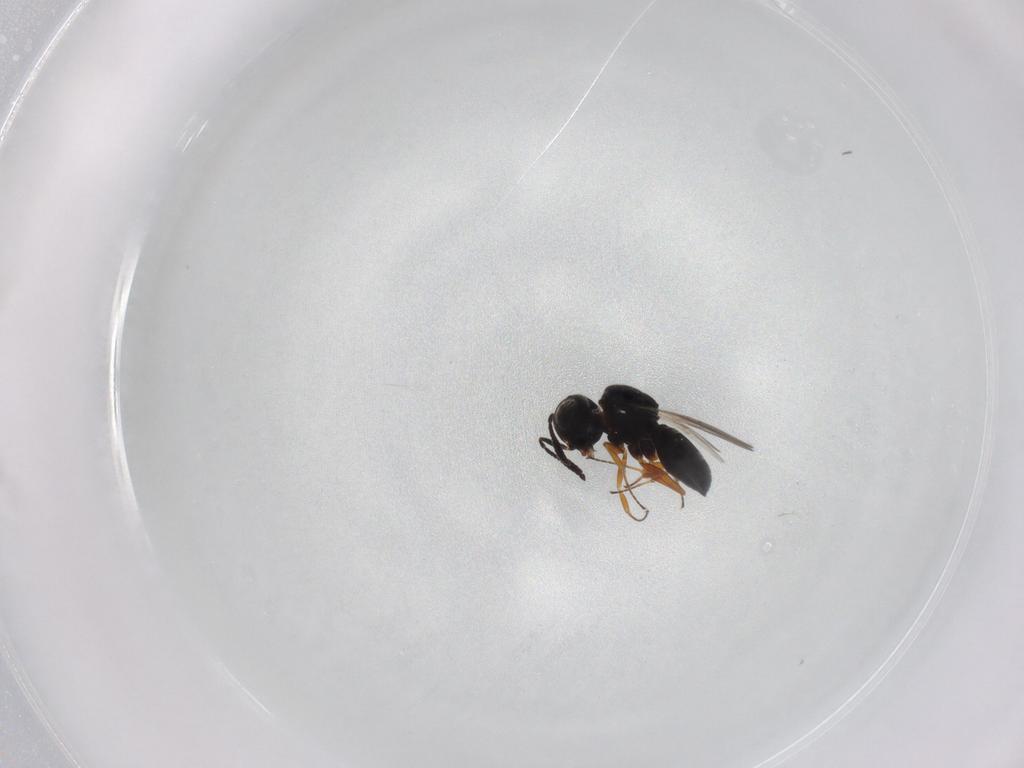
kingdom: Animalia
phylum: Arthropoda
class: Insecta
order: Hymenoptera
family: Scelionidae
